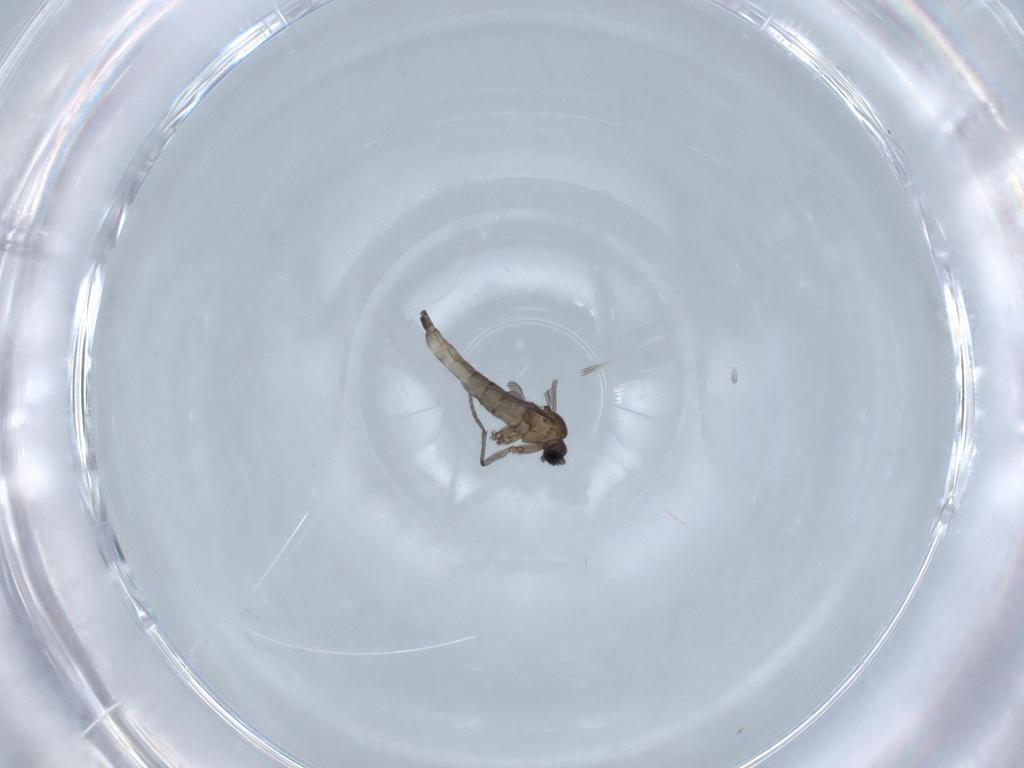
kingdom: Animalia
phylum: Arthropoda
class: Insecta
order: Diptera
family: Sciaridae
